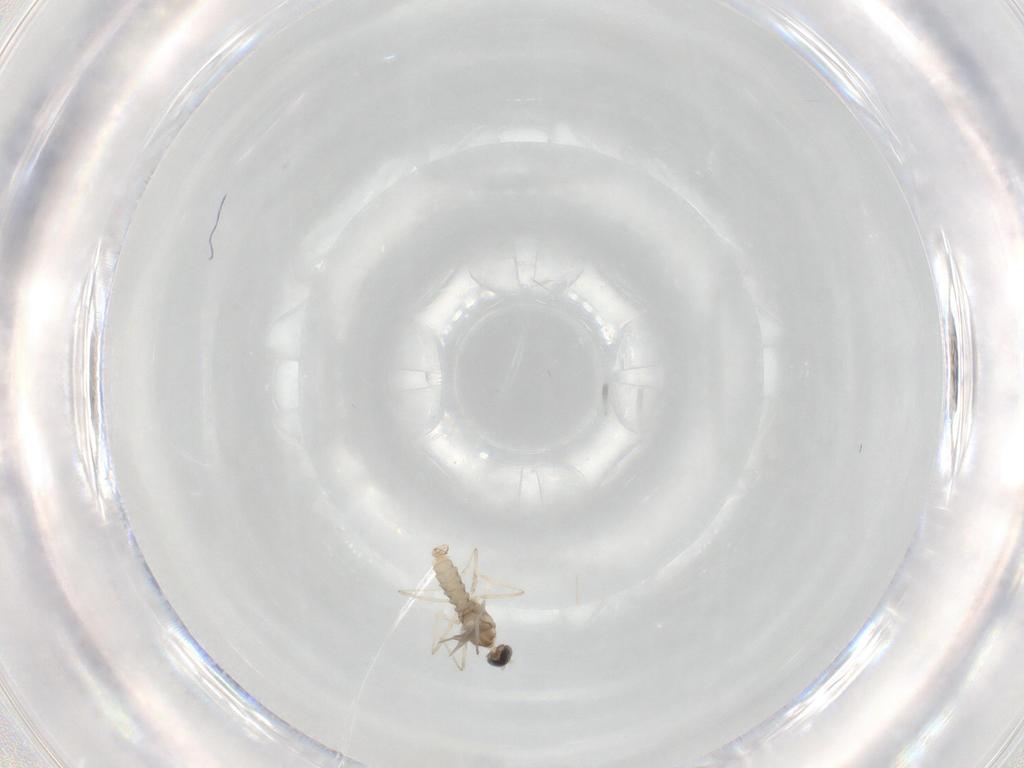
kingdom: Animalia
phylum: Arthropoda
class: Insecta
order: Diptera
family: Cecidomyiidae
